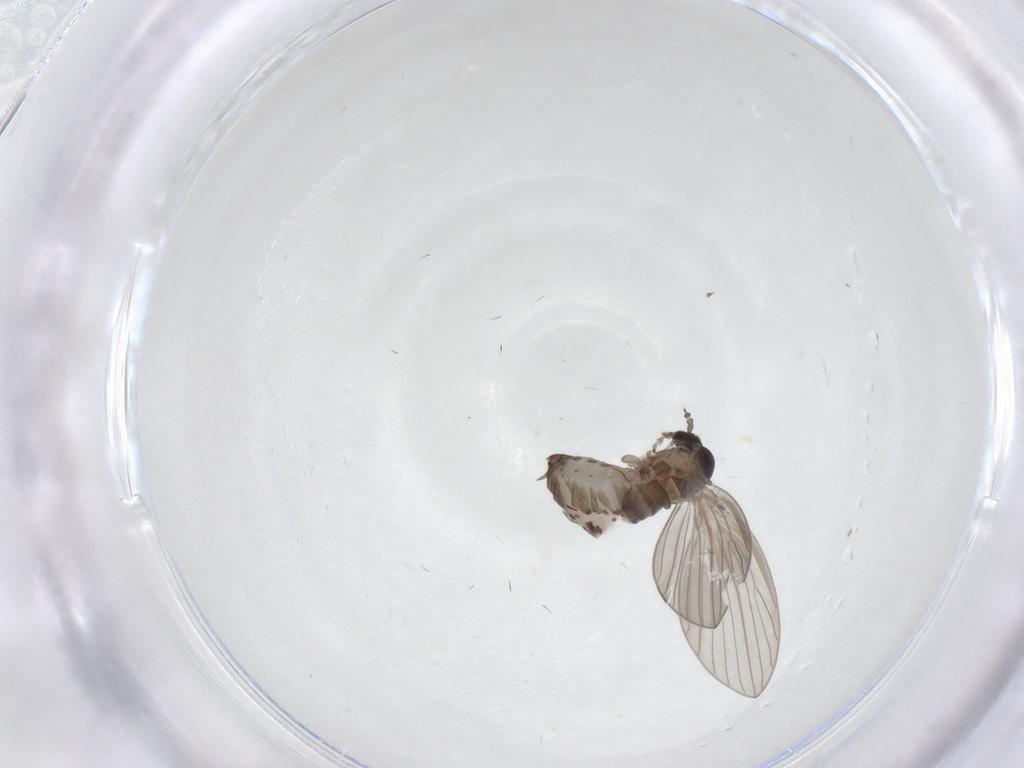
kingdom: Animalia
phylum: Arthropoda
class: Insecta
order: Diptera
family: Psychodidae
